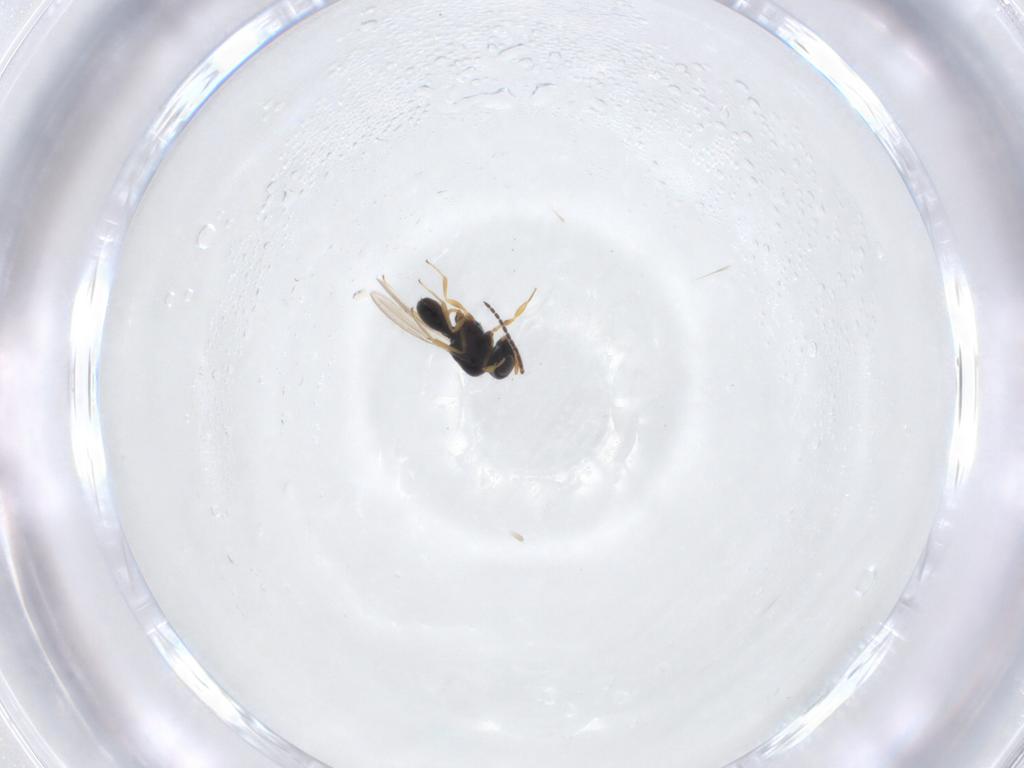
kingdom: Animalia
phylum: Arthropoda
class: Insecta
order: Hymenoptera
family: Scelionidae
